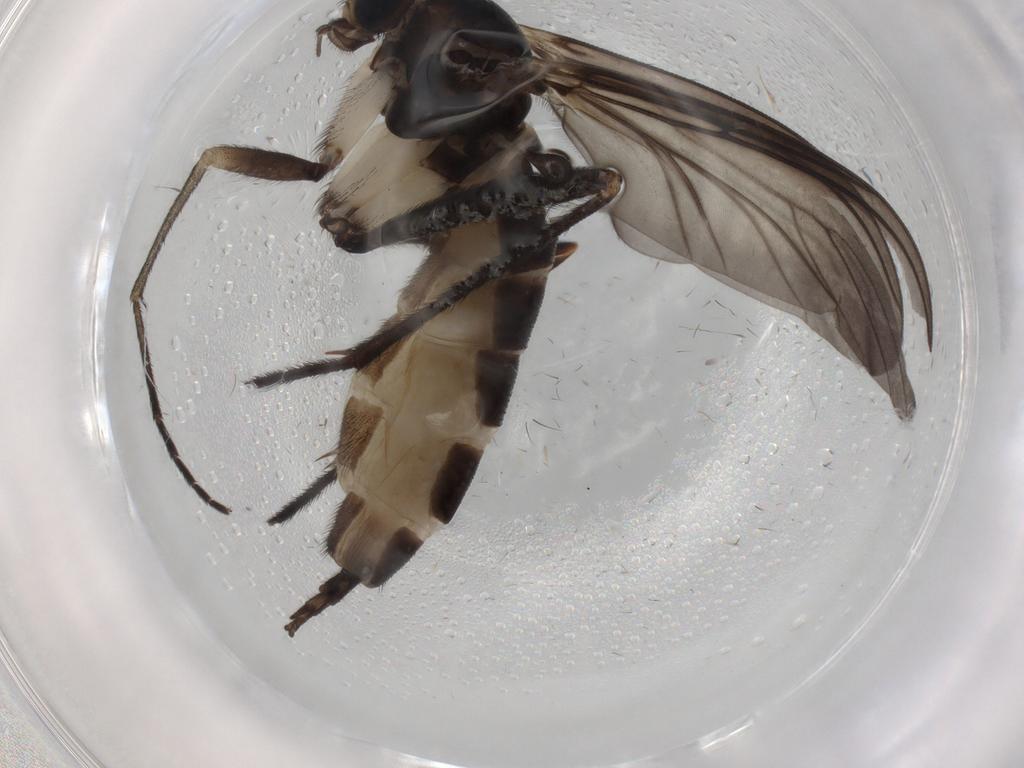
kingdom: Animalia
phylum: Arthropoda
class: Insecta
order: Diptera
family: Sciaridae
